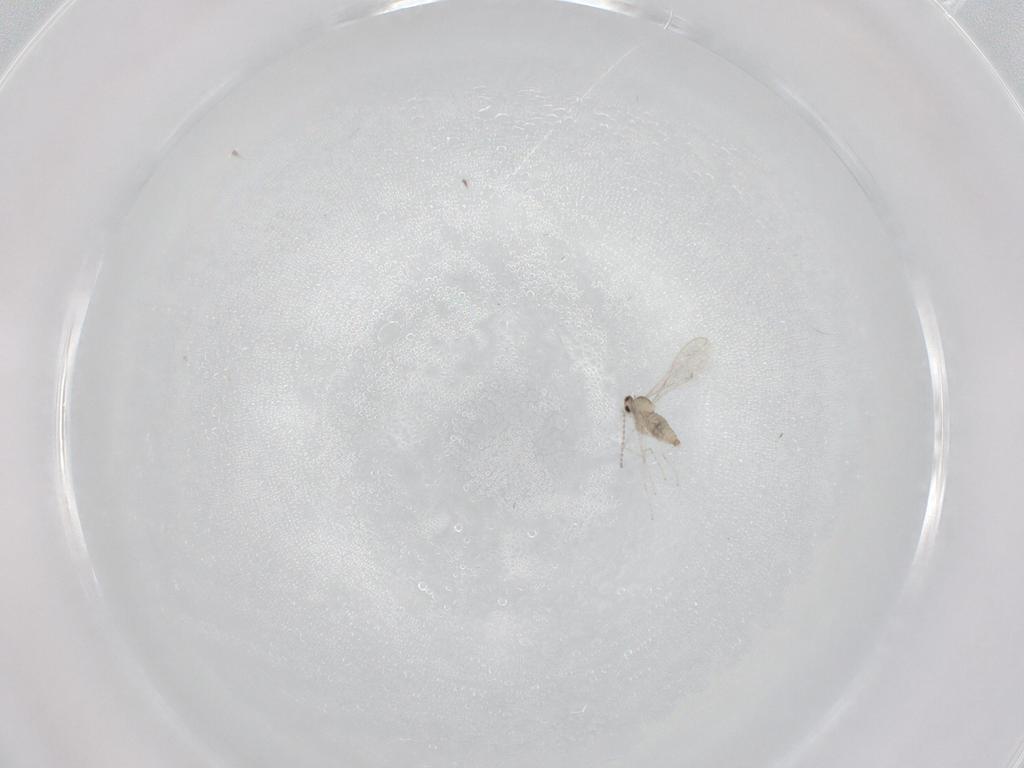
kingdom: Animalia
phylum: Arthropoda
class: Insecta
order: Diptera
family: Cecidomyiidae
